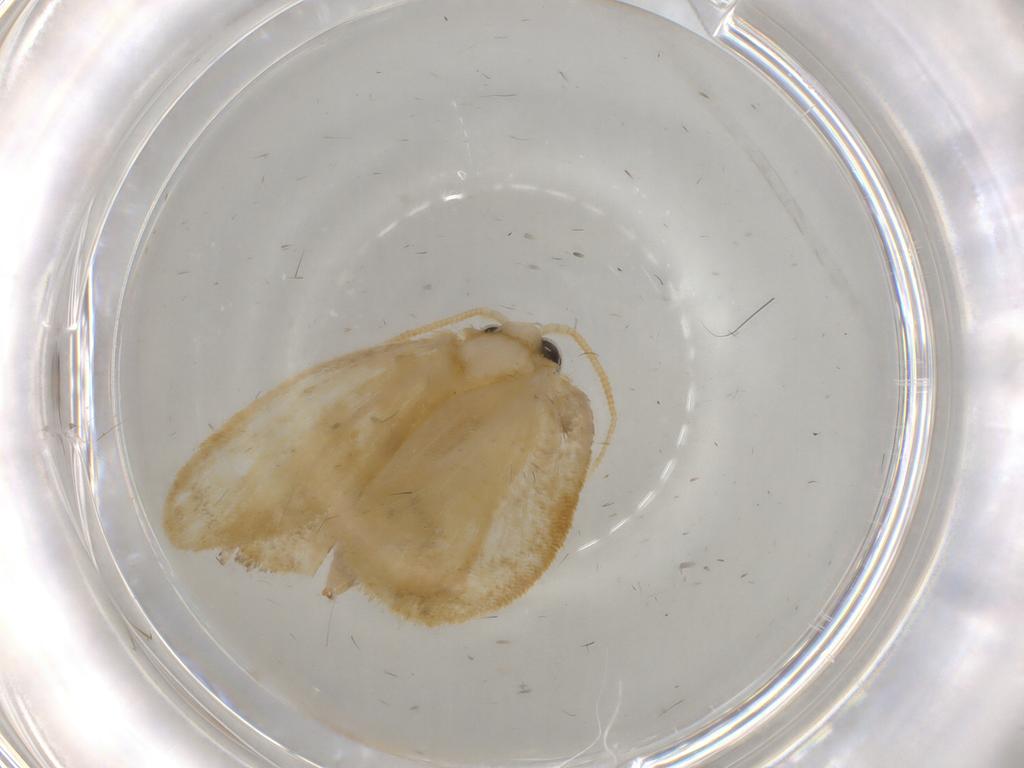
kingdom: Animalia
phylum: Arthropoda
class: Insecta
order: Lepidoptera
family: Psychidae
